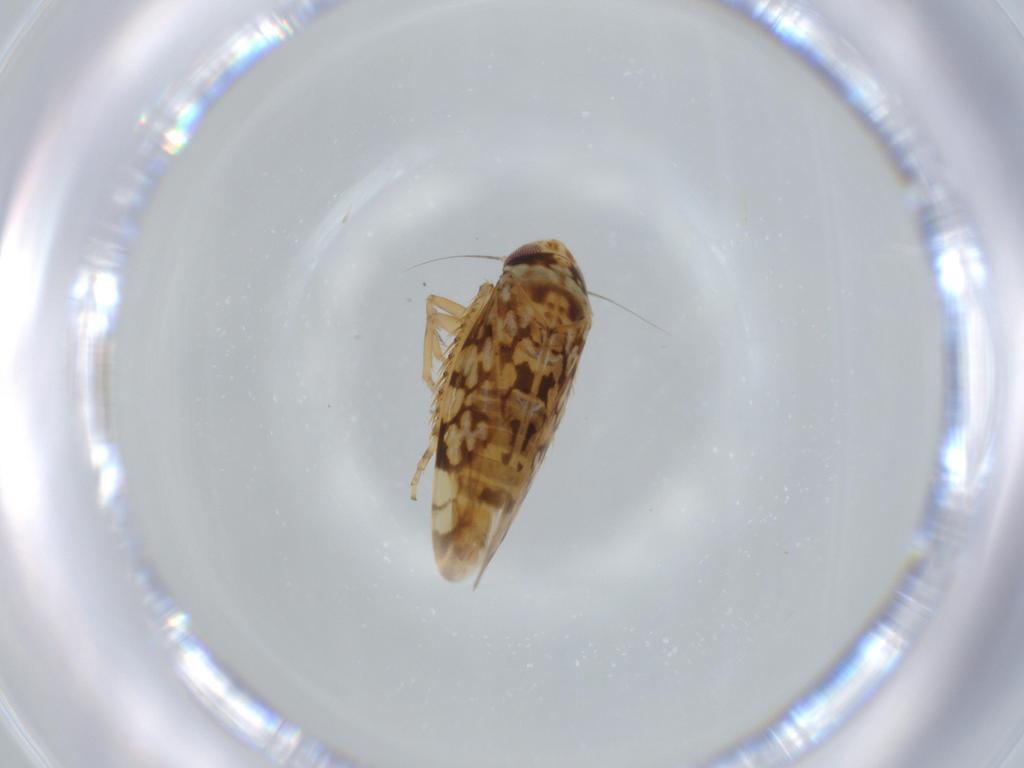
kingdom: Animalia
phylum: Arthropoda
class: Insecta
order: Hemiptera
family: Cicadellidae
